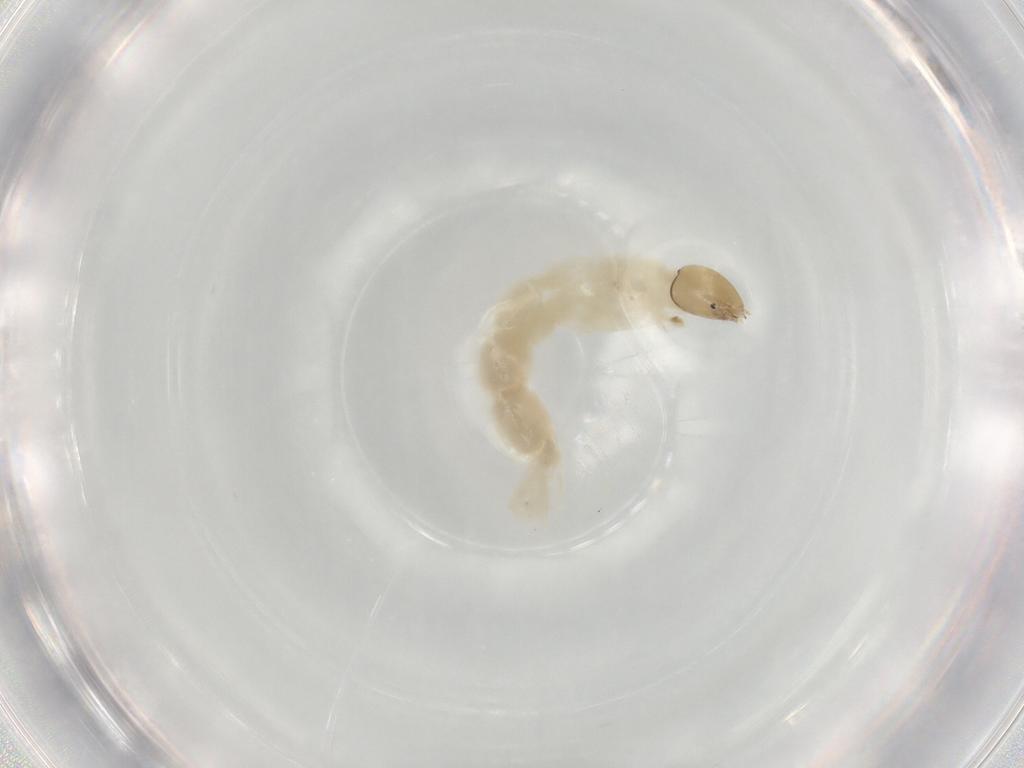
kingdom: Animalia
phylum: Arthropoda
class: Insecta
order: Diptera
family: Chironomidae
